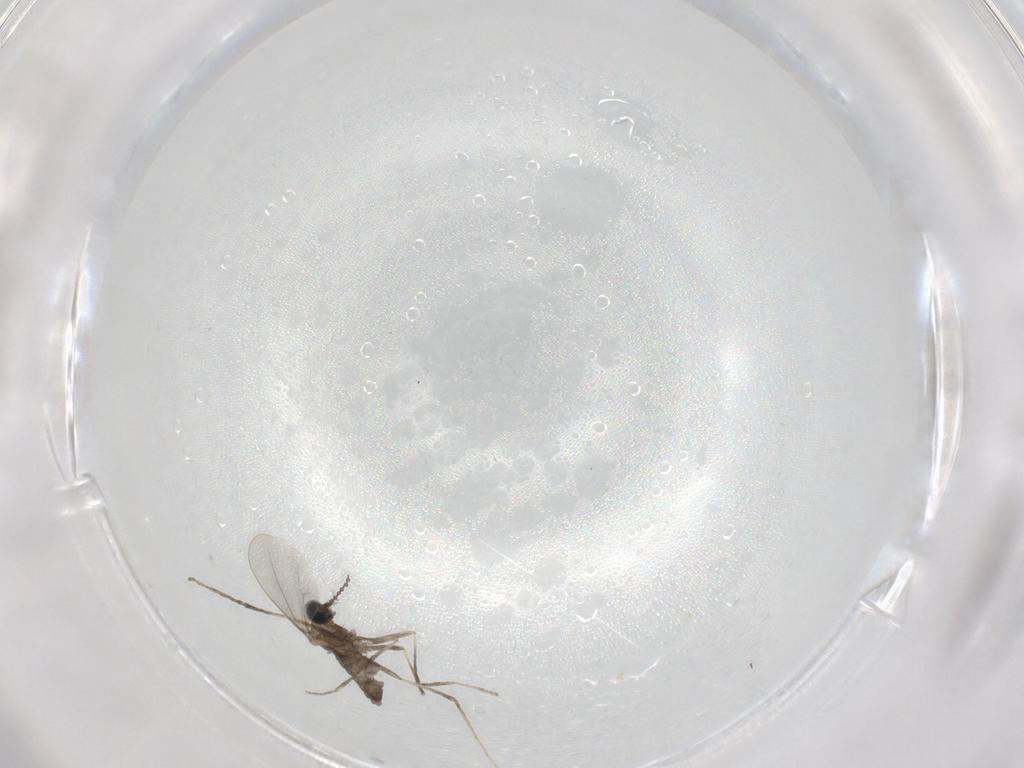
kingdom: Animalia
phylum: Arthropoda
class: Insecta
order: Diptera
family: Cecidomyiidae
